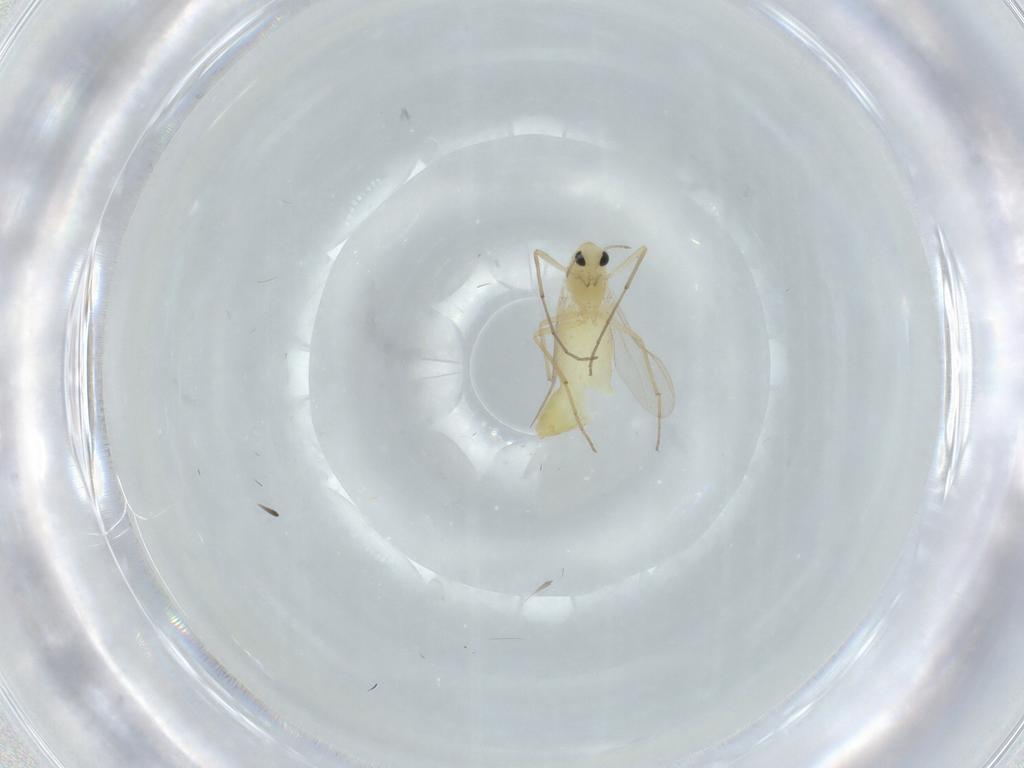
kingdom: Animalia
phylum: Arthropoda
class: Insecta
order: Diptera
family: Chironomidae
